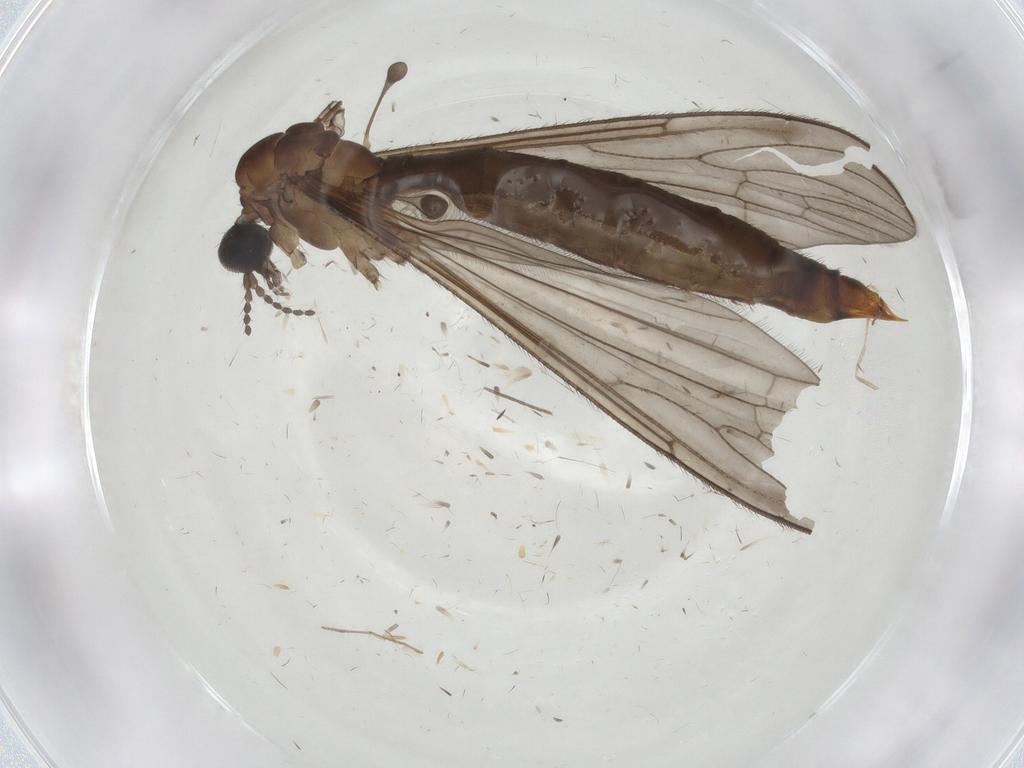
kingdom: Animalia
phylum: Arthropoda
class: Insecta
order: Diptera
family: Limoniidae
